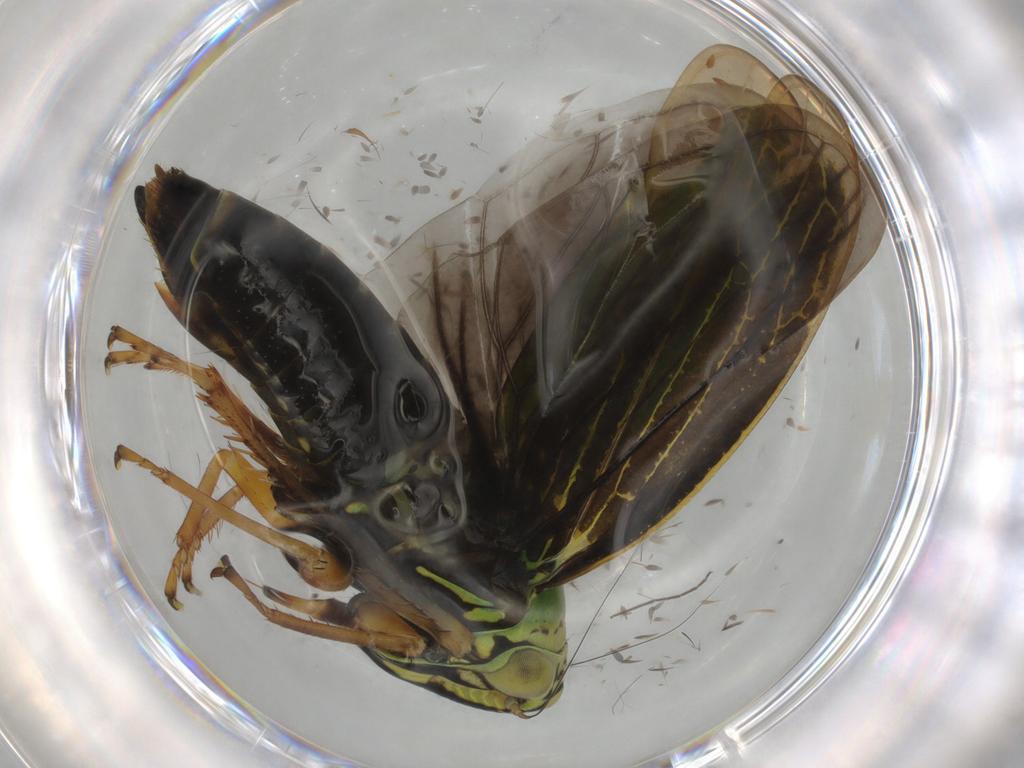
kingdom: Animalia
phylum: Arthropoda
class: Insecta
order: Hemiptera
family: Cicadellidae
